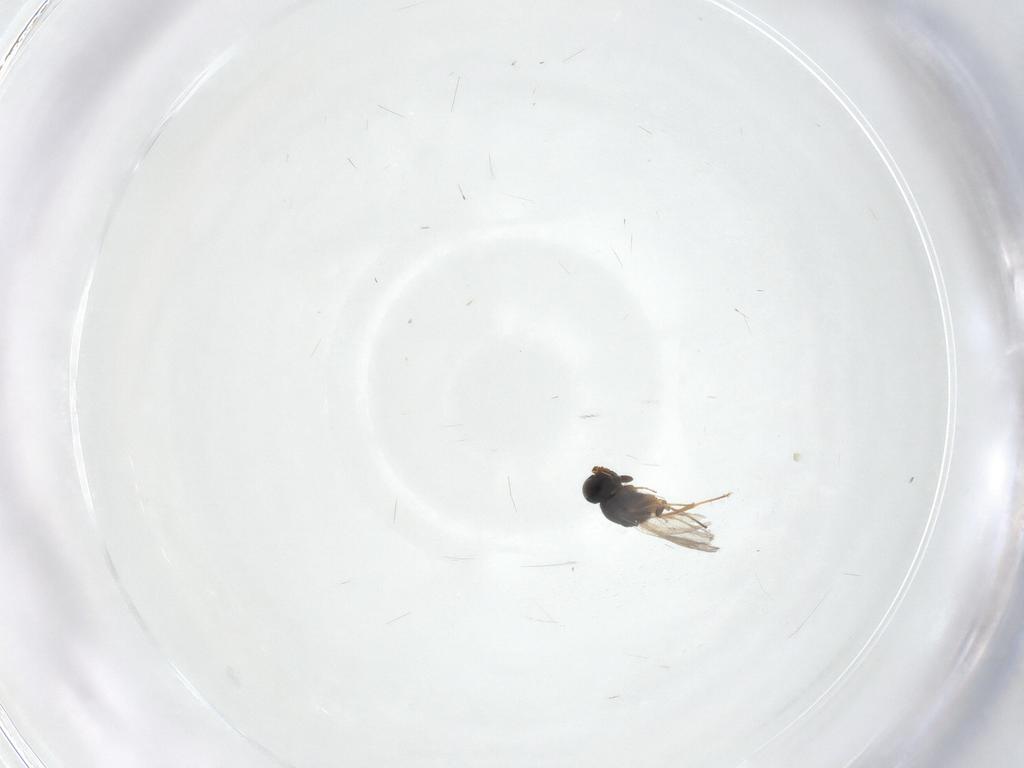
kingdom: Animalia
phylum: Arthropoda
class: Insecta
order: Hymenoptera
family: Scelionidae
